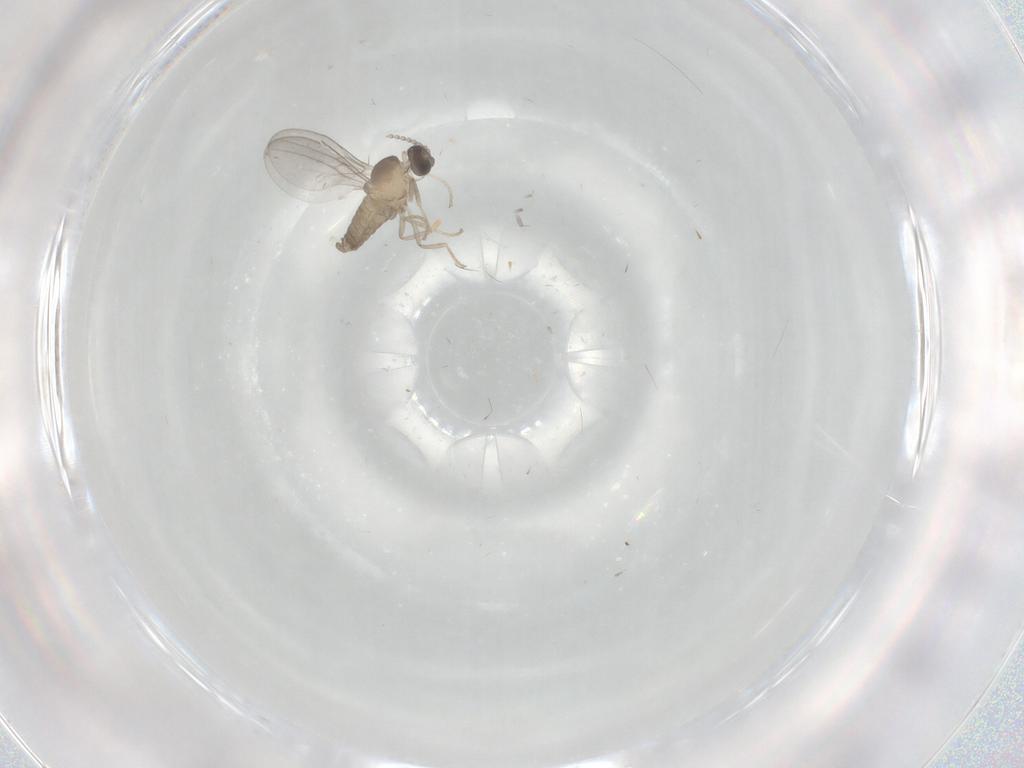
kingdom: Animalia
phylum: Arthropoda
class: Insecta
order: Diptera
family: Cecidomyiidae
